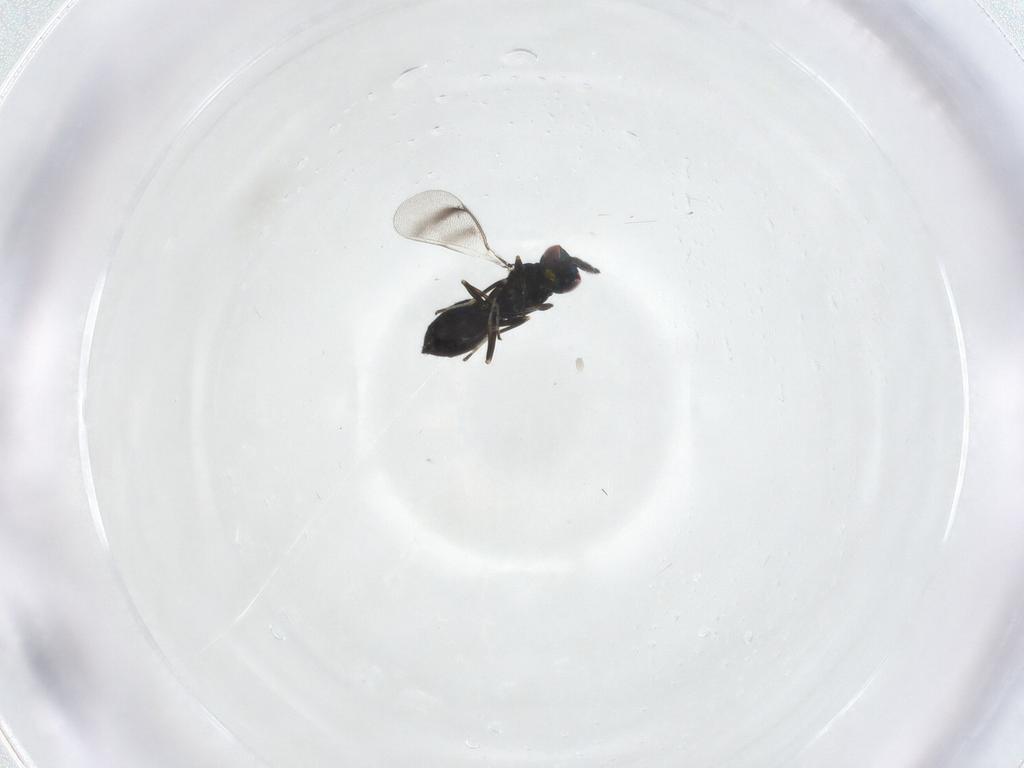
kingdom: Animalia
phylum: Arthropoda
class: Insecta
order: Hymenoptera
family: Eulophidae
